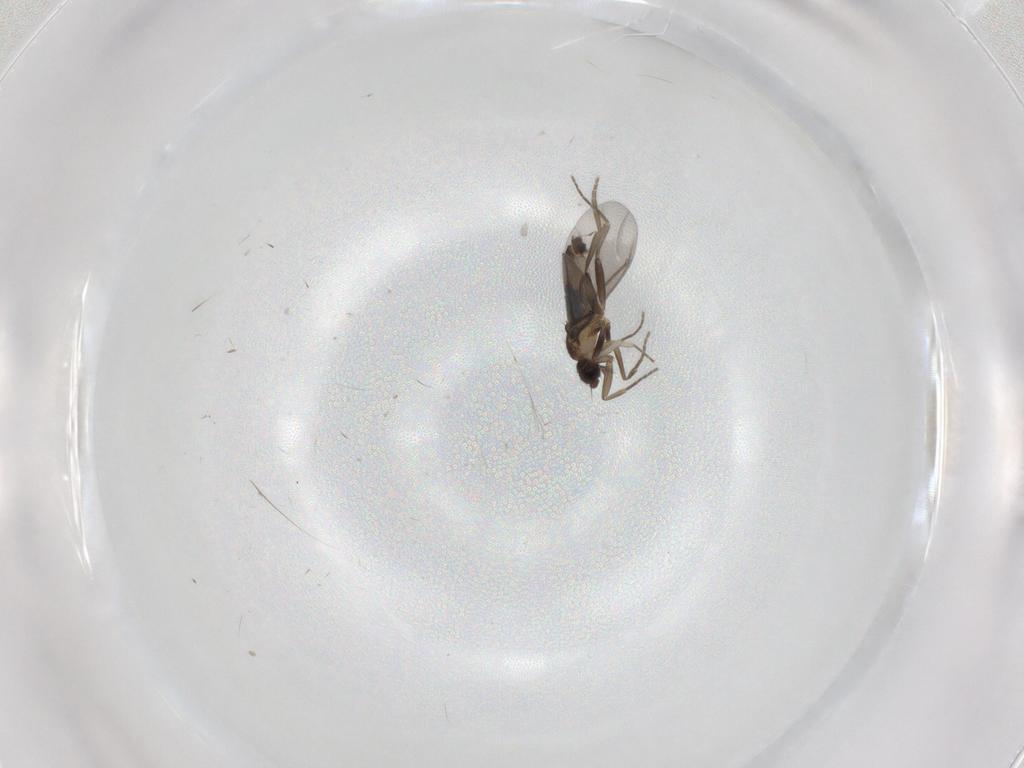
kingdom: Animalia
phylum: Arthropoda
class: Insecta
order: Diptera
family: Phoridae
